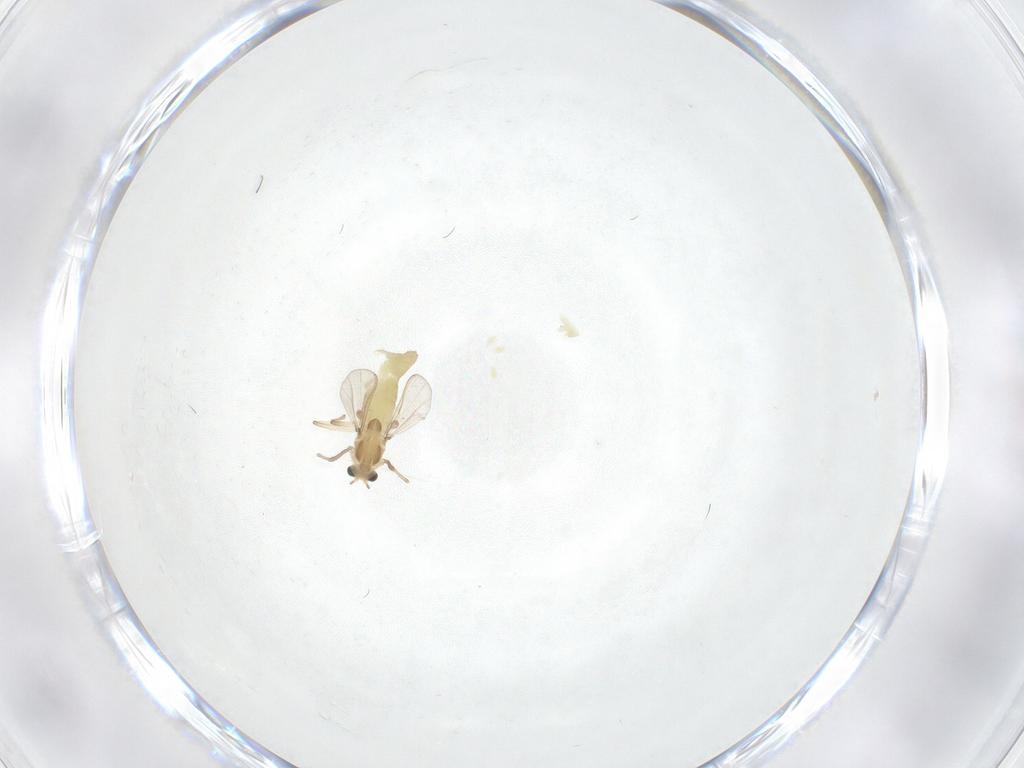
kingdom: Animalia
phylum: Arthropoda
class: Insecta
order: Diptera
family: Chironomidae
